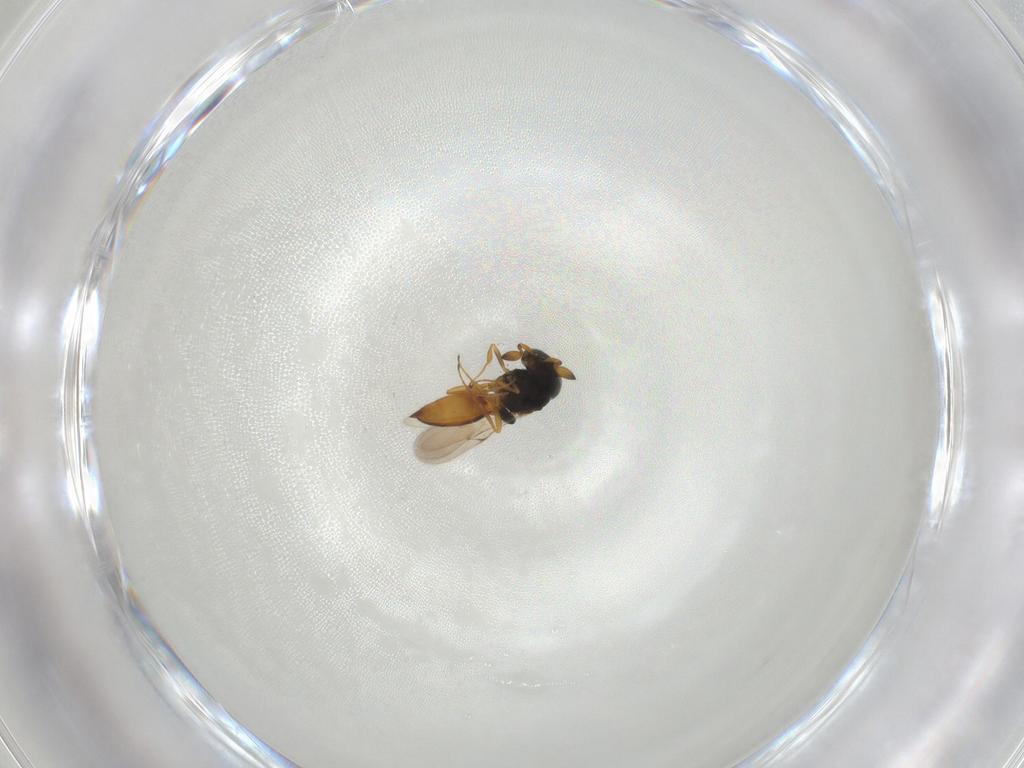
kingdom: Animalia
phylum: Arthropoda
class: Insecta
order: Hymenoptera
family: Scelionidae
